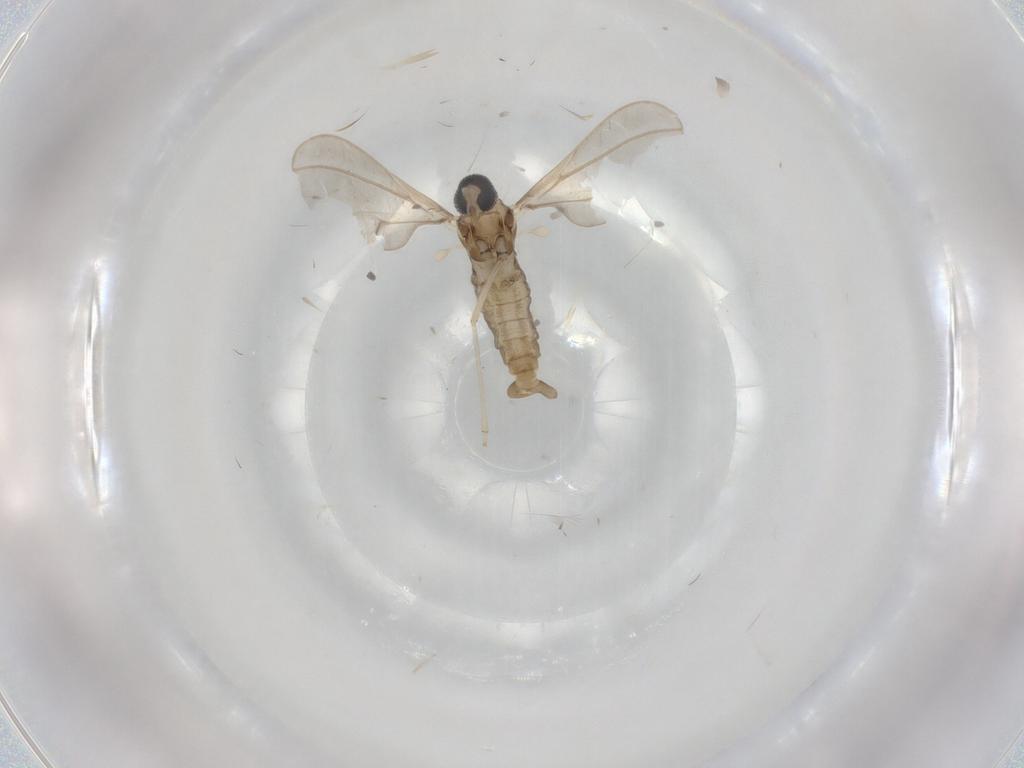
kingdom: Animalia
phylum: Arthropoda
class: Insecta
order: Diptera
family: Cecidomyiidae
